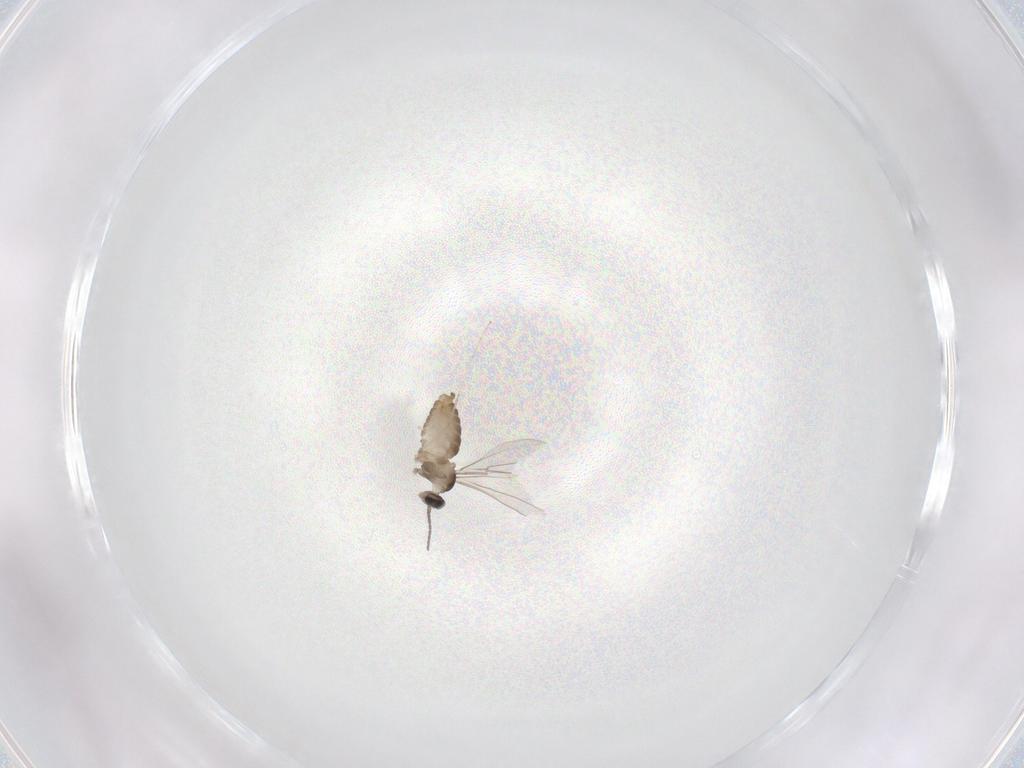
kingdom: Animalia
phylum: Arthropoda
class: Insecta
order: Diptera
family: Cecidomyiidae
